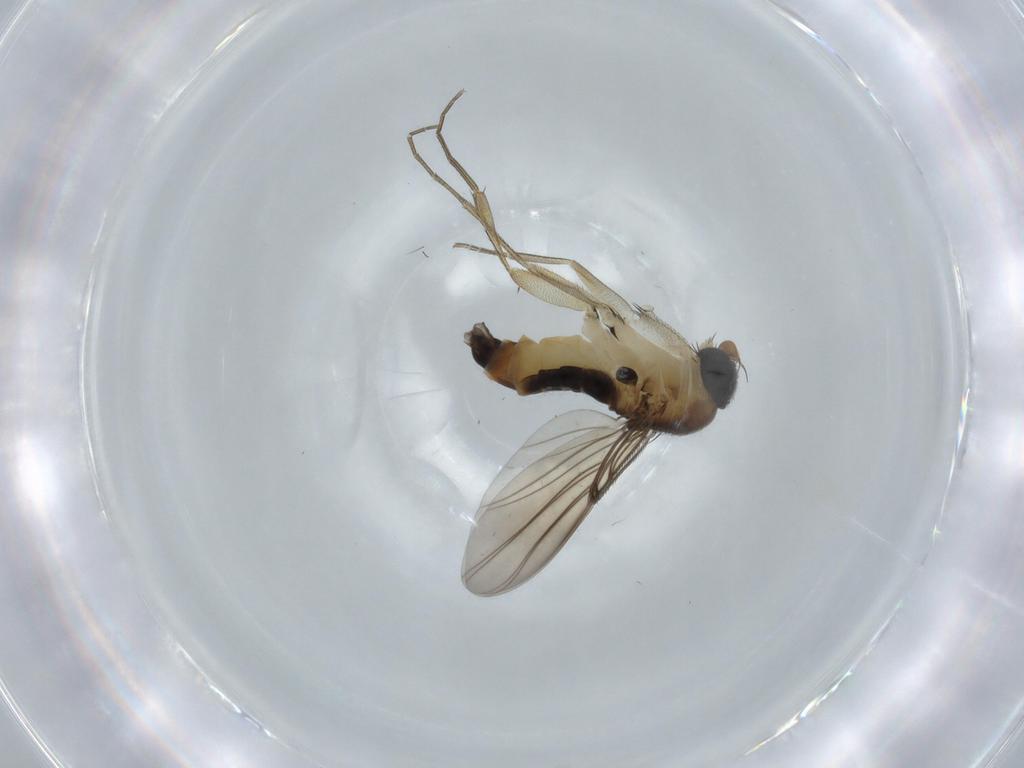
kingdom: Animalia
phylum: Arthropoda
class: Insecta
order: Diptera
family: Phoridae
